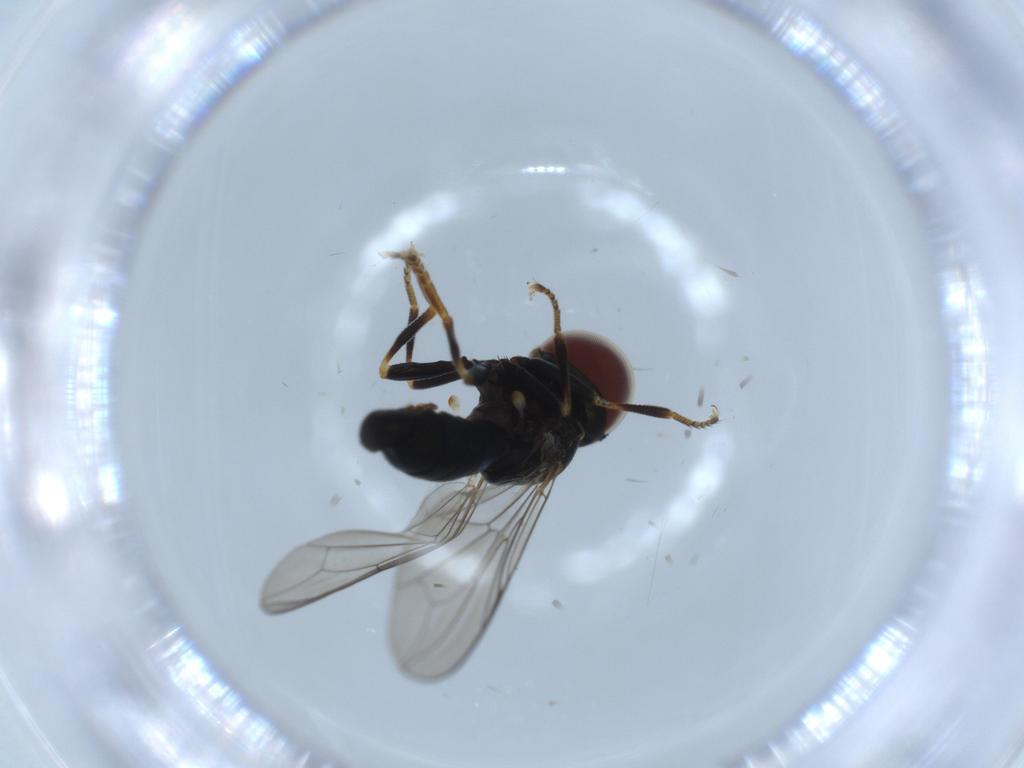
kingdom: Animalia
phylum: Arthropoda
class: Insecta
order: Diptera
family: Pipunculidae
